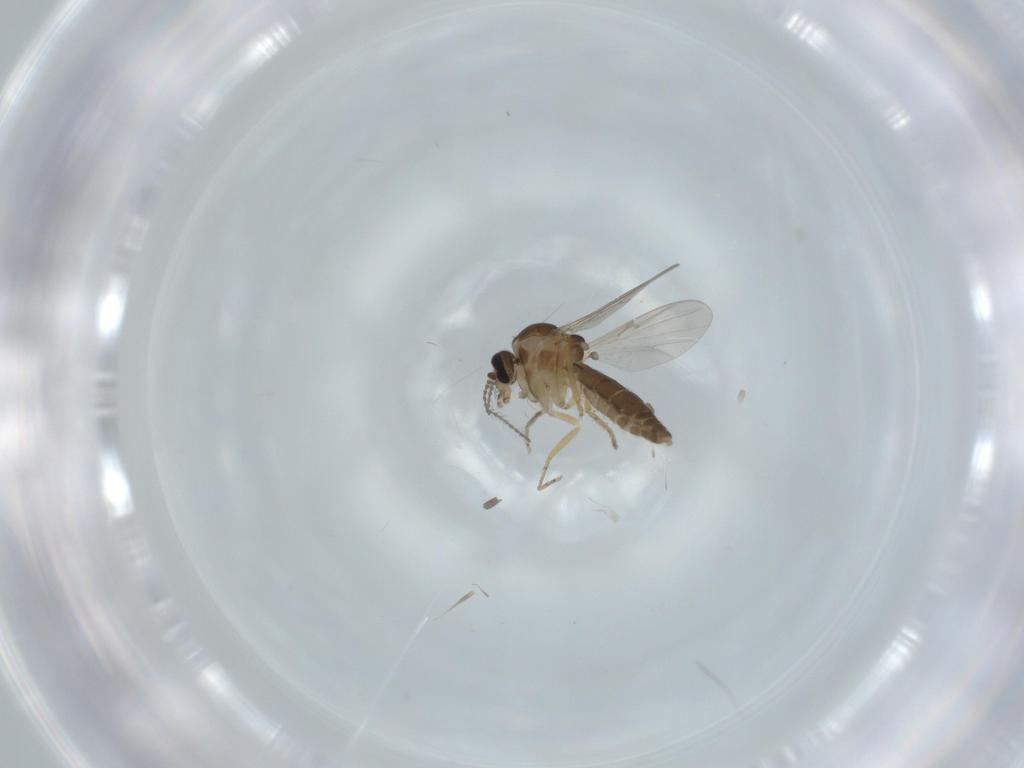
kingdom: Animalia
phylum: Arthropoda
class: Insecta
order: Diptera
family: Ceratopogonidae
